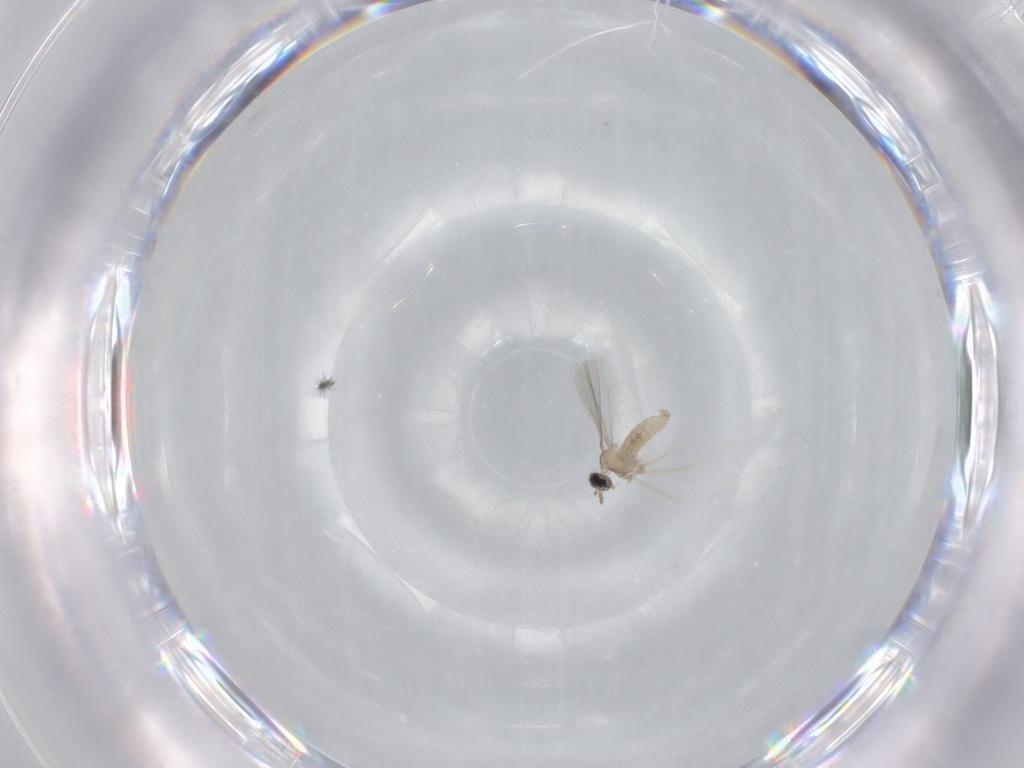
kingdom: Animalia
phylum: Arthropoda
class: Insecta
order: Diptera
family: Cecidomyiidae
